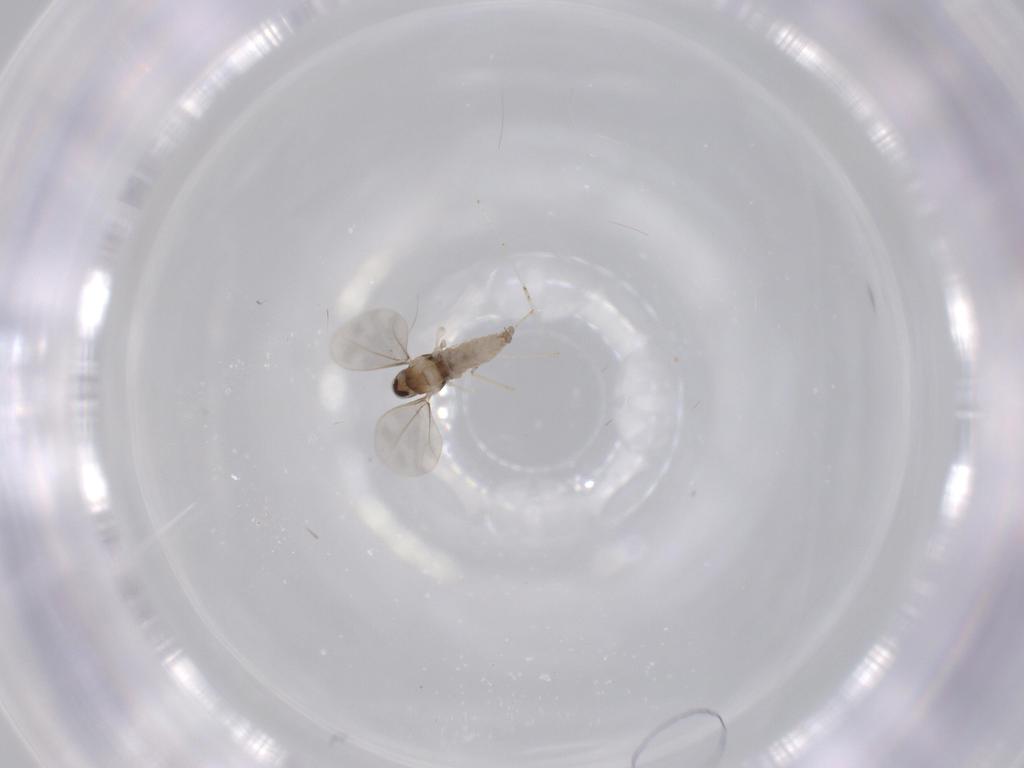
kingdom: Animalia
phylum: Arthropoda
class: Insecta
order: Diptera
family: Cecidomyiidae
